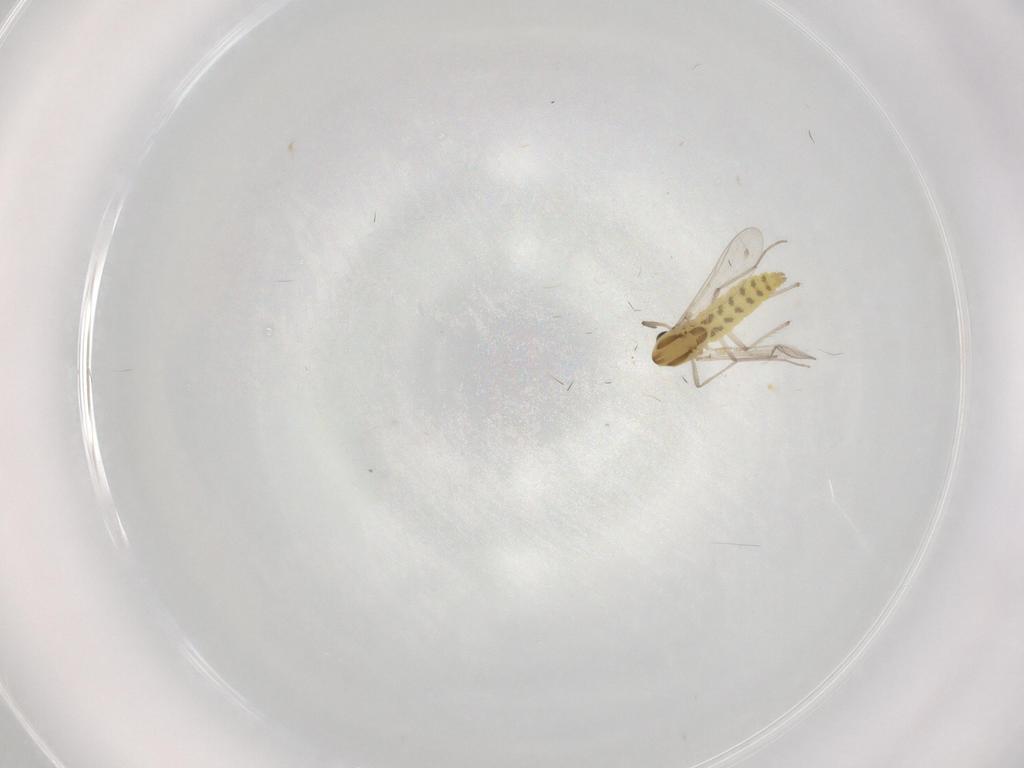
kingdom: Animalia
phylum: Arthropoda
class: Insecta
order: Diptera
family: Chironomidae
